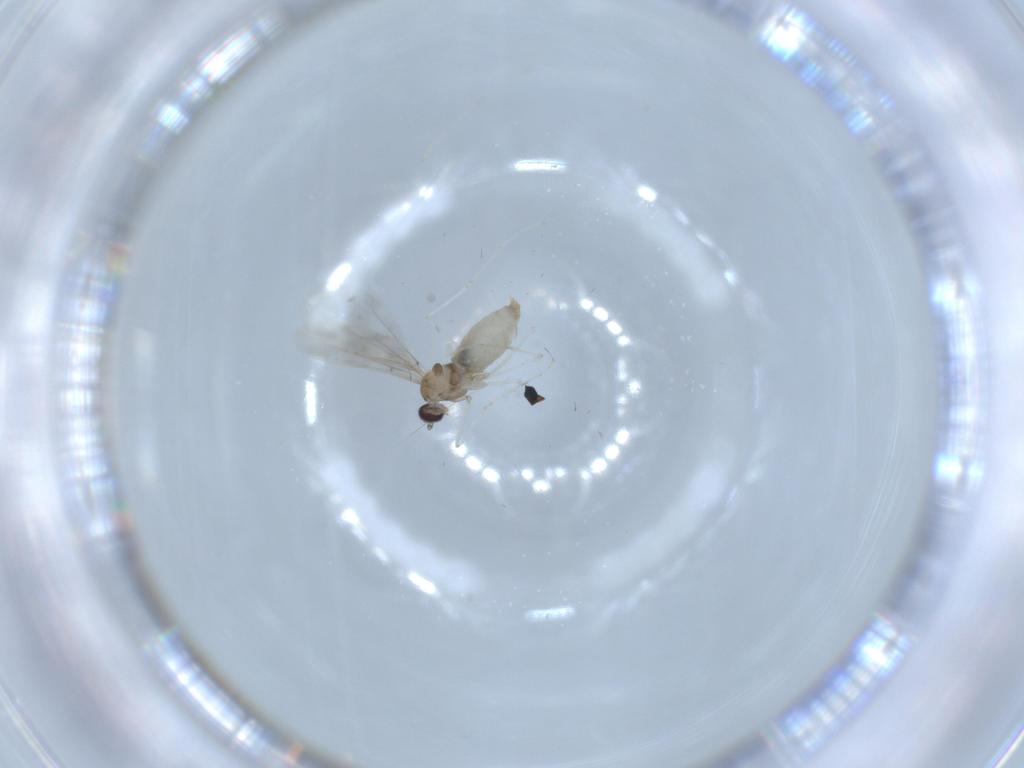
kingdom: Animalia
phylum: Arthropoda
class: Insecta
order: Diptera
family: Cecidomyiidae
